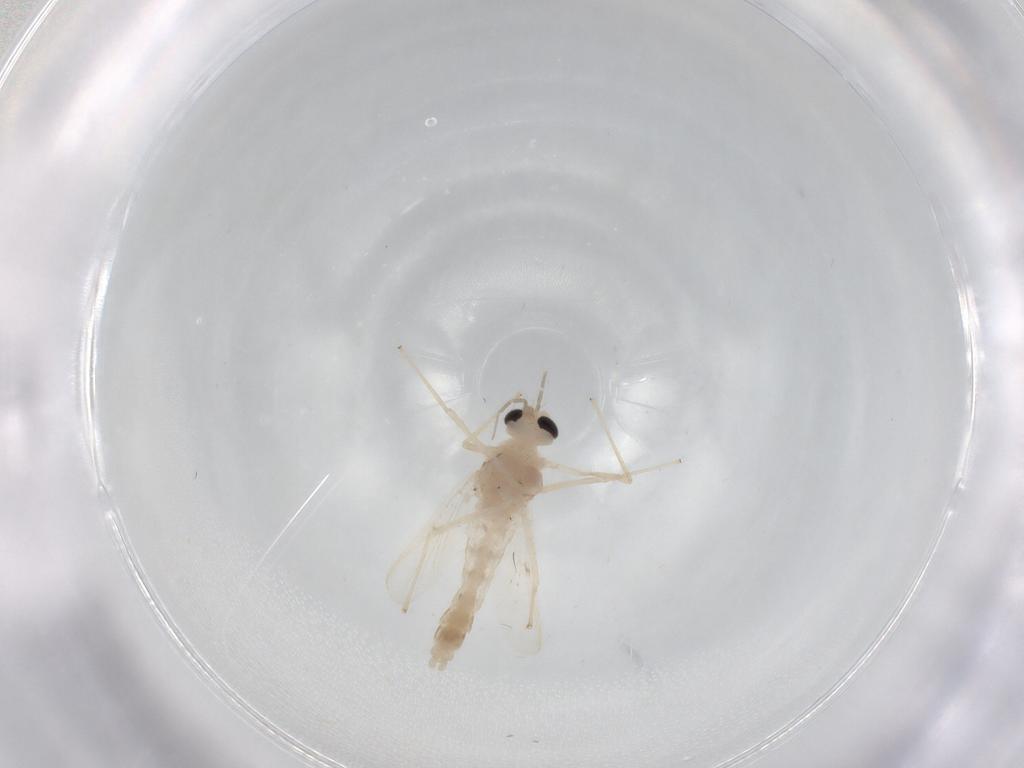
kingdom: Animalia
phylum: Arthropoda
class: Insecta
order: Diptera
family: Chironomidae
